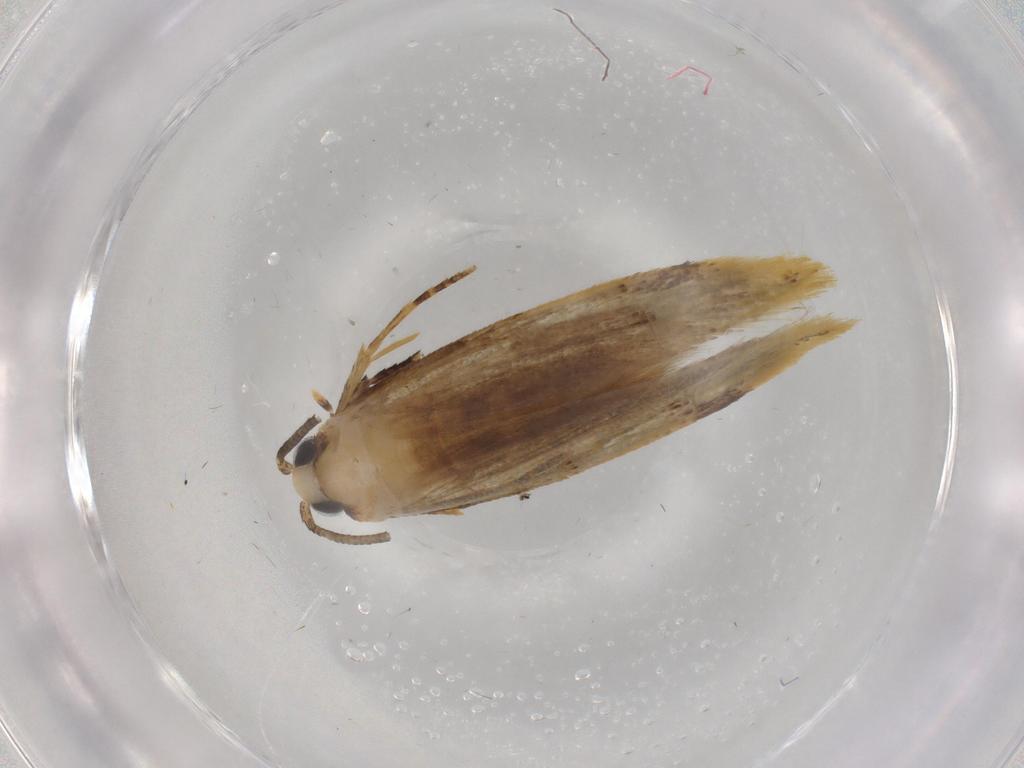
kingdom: Animalia
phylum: Arthropoda
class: Insecta
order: Lepidoptera
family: Tineidae
